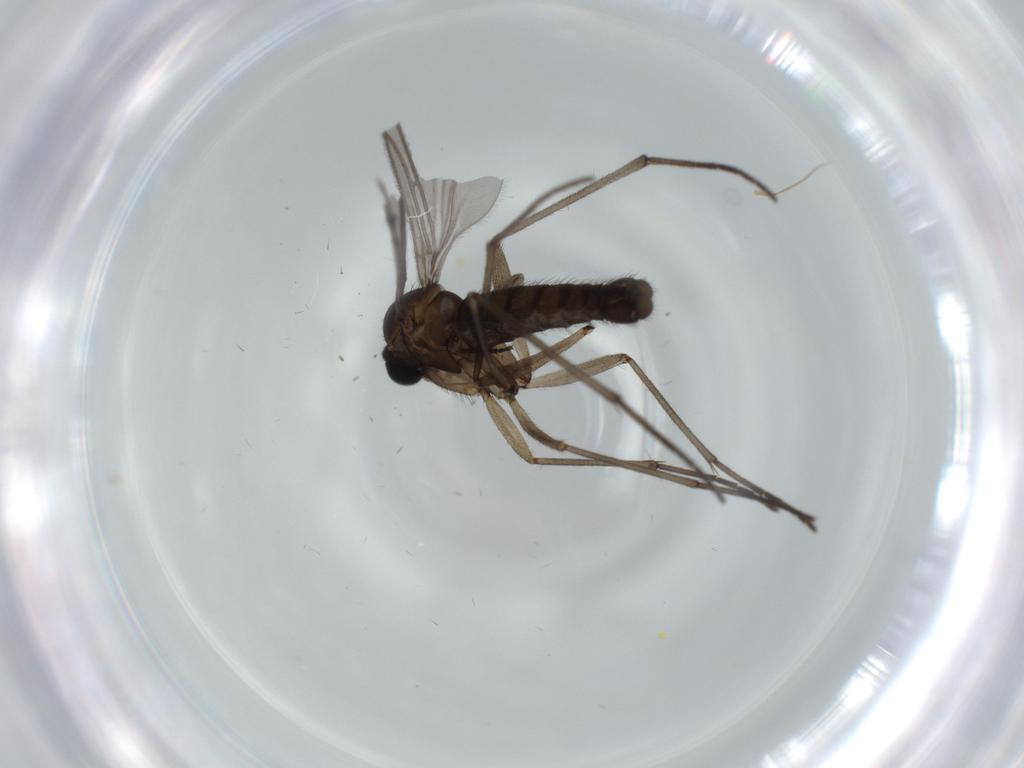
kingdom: Animalia
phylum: Arthropoda
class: Insecta
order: Diptera
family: Sciaridae
